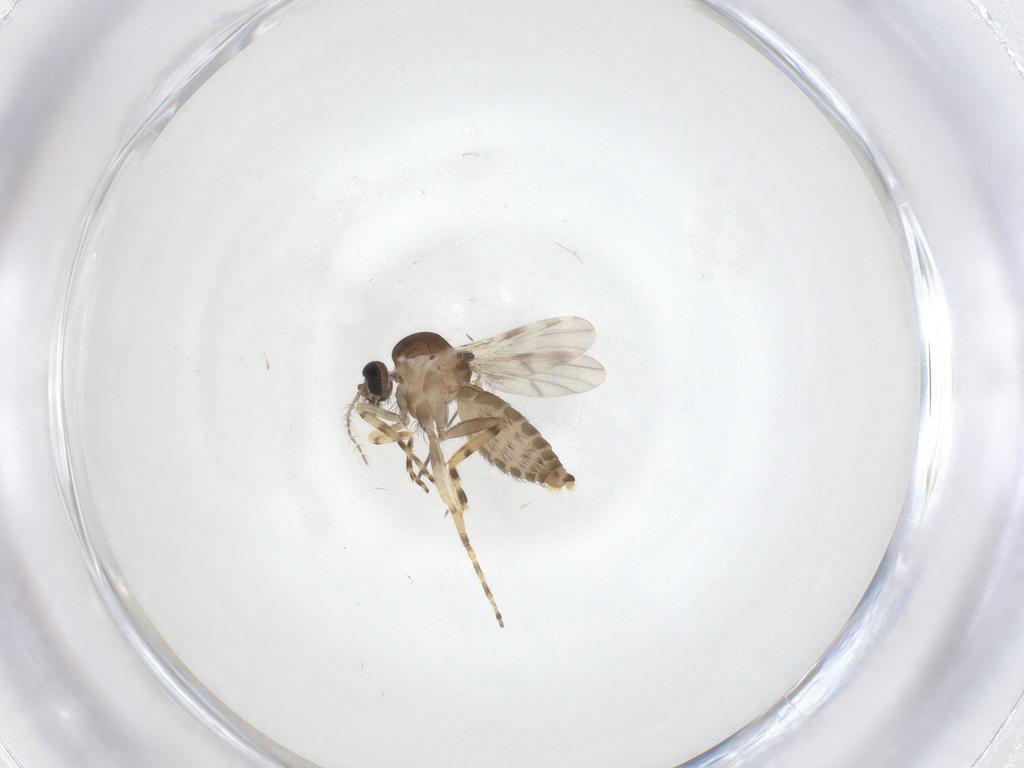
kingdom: Animalia
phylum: Arthropoda
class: Insecta
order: Diptera
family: Ceratopogonidae
